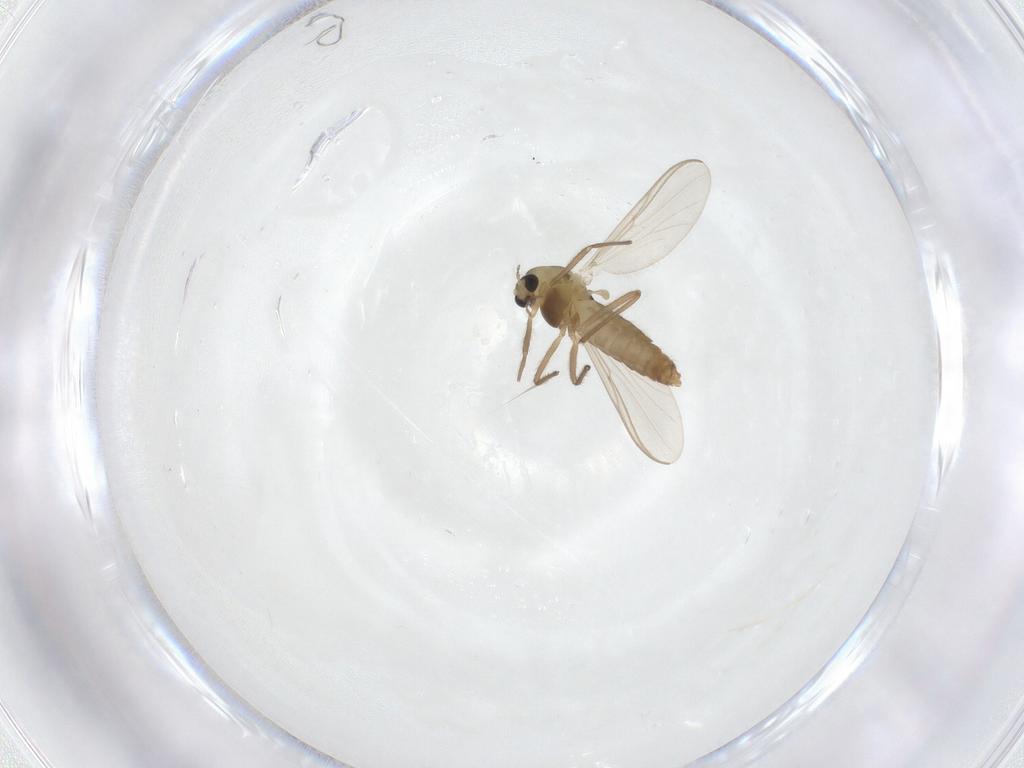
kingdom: Animalia
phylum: Arthropoda
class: Insecta
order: Diptera
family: Chironomidae
